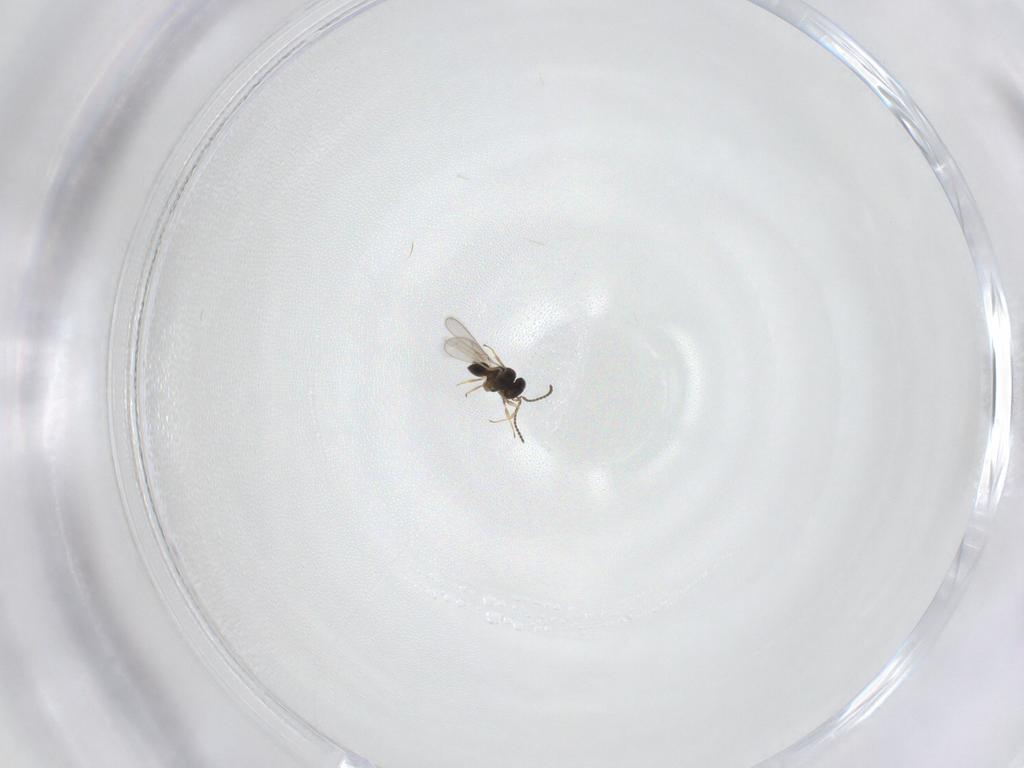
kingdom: Animalia
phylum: Arthropoda
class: Insecta
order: Hymenoptera
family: Scelionidae
